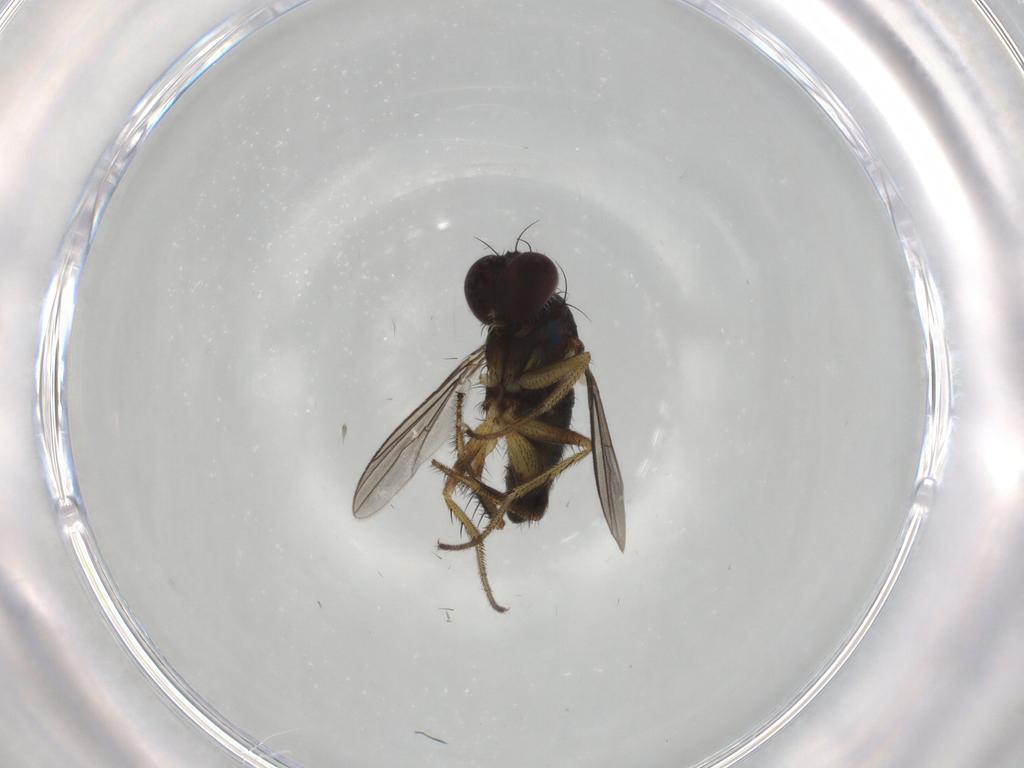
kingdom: Animalia
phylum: Arthropoda
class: Insecta
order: Diptera
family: Dolichopodidae
